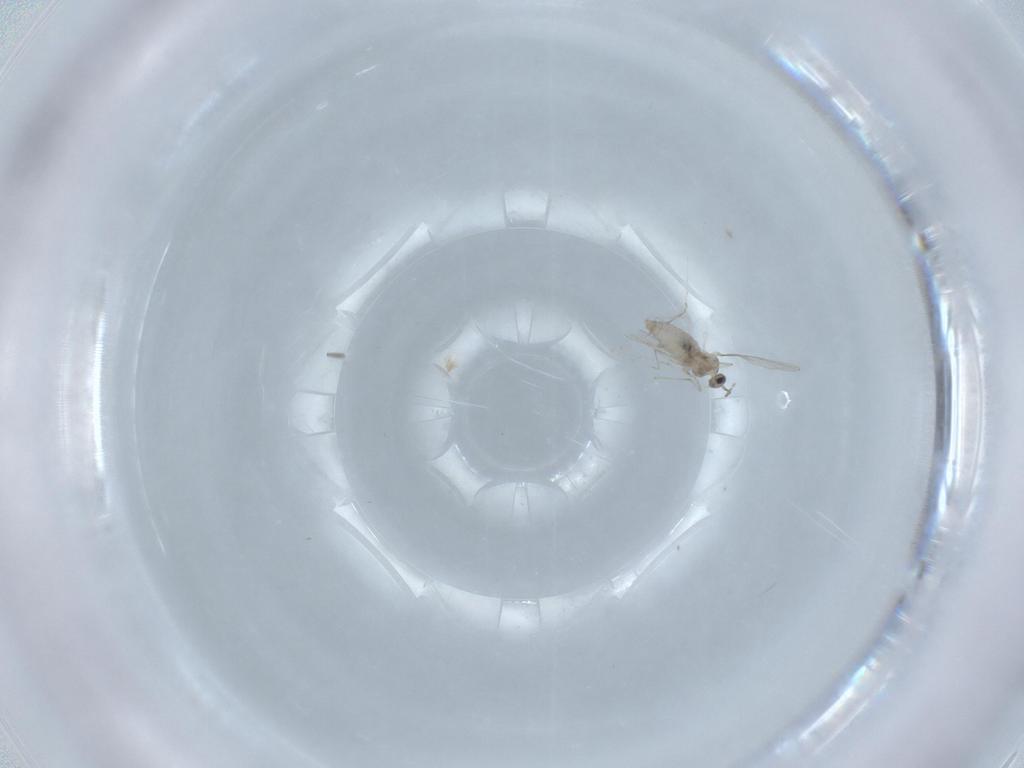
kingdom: Animalia
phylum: Arthropoda
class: Insecta
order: Diptera
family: Cecidomyiidae
